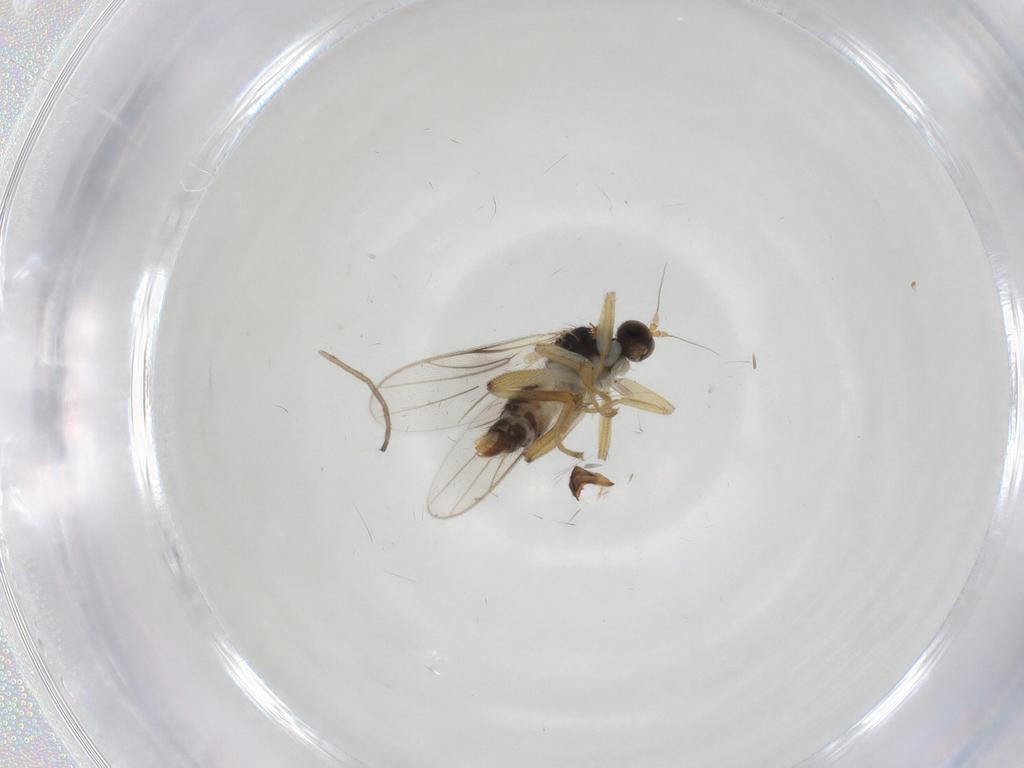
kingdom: Animalia
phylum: Arthropoda
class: Insecta
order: Diptera
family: Hybotidae
